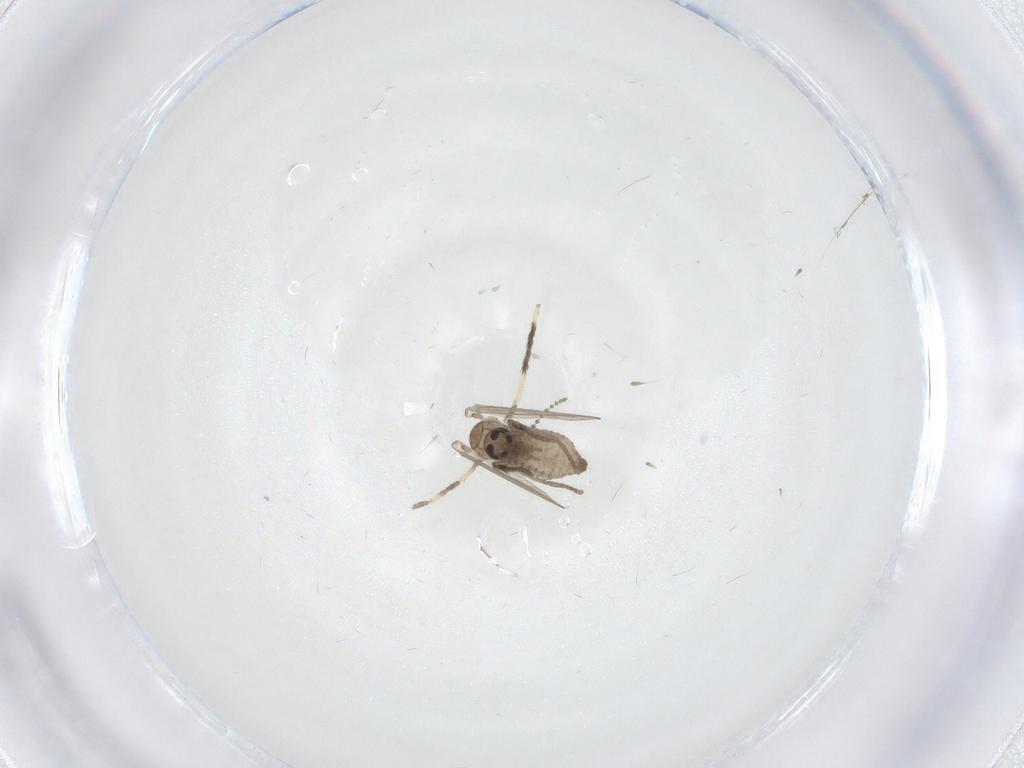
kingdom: Animalia
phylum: Arthropoda
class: Insecta
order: Diptera
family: Psychodidae
